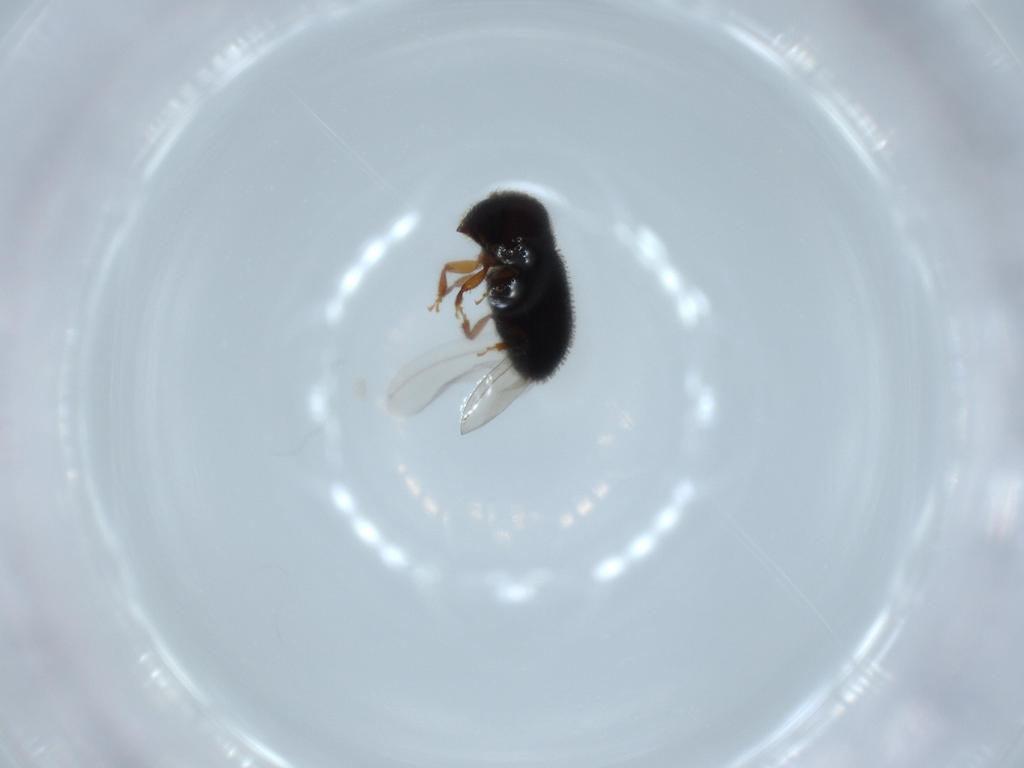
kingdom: Animalia
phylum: Arthropoda
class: Insecta
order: Coleoptera
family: Curculionidae
